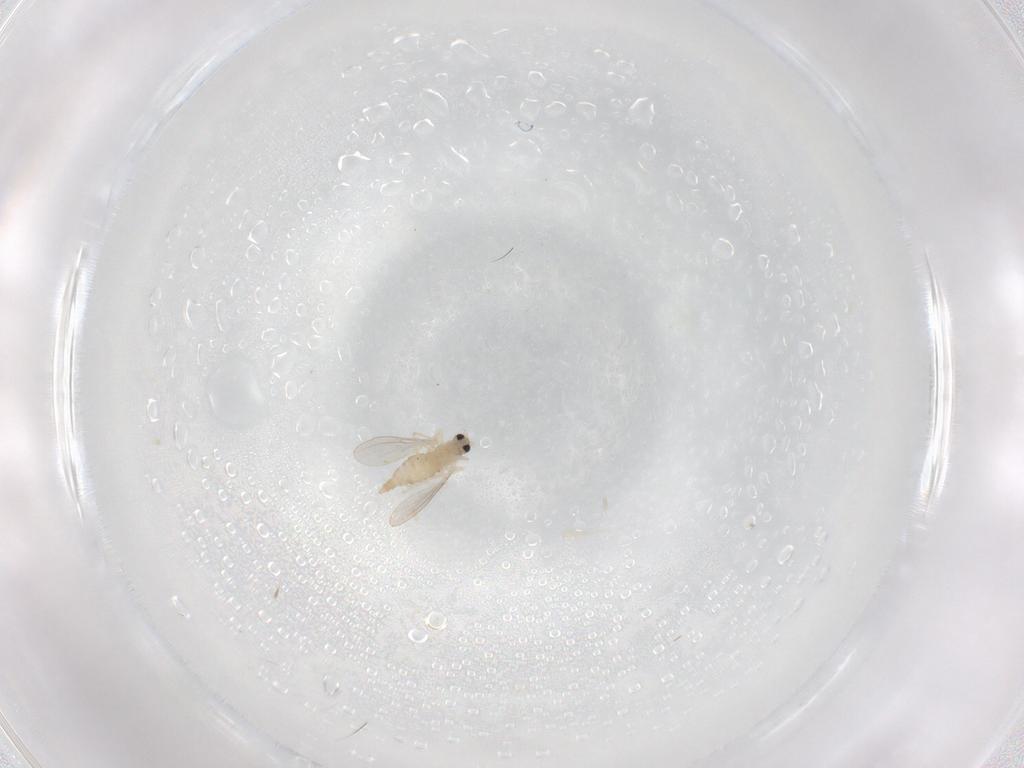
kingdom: Animalia
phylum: Arthropoda
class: Insecta
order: Diptera
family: Cecidomyiidae
